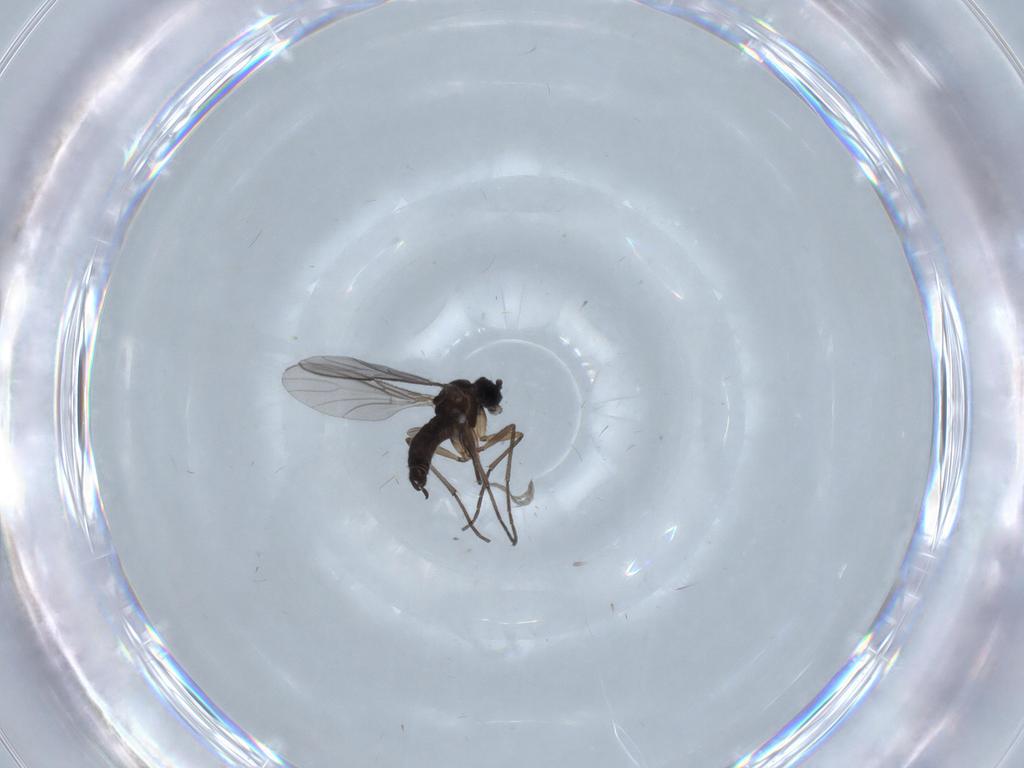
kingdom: Animalia
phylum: Arthropoda
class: Insecta
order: Diptera
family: Sciaridae
